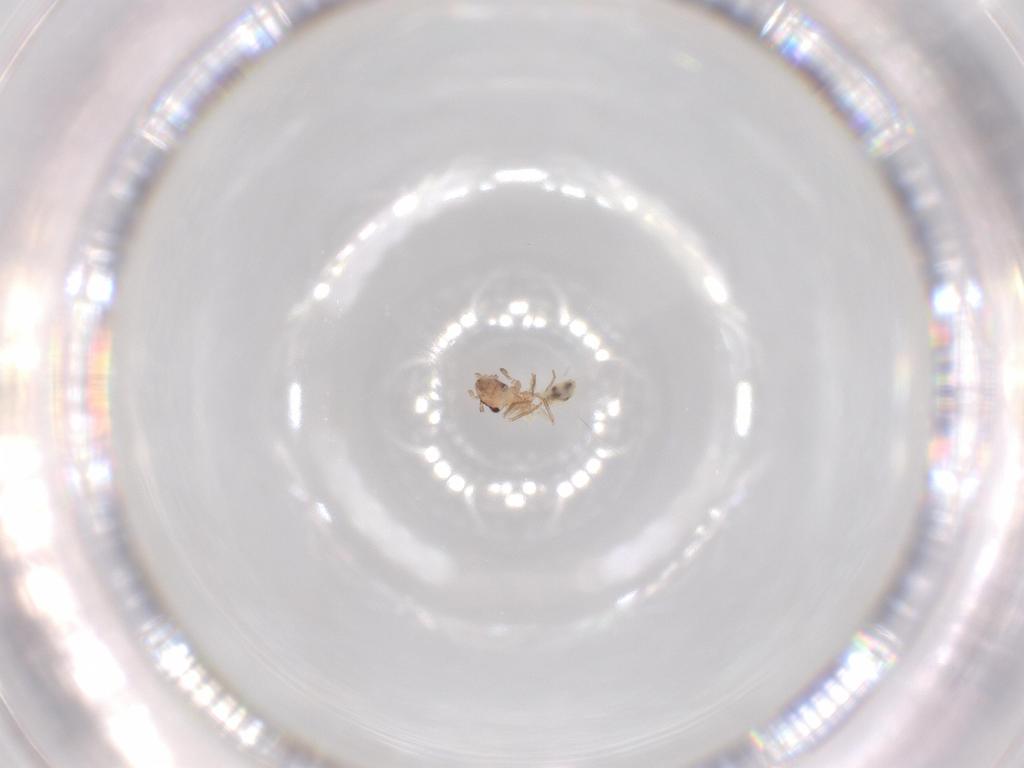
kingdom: Animalia
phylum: Arthropoda
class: Insecta
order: Psocodea
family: Lepidopsocidae
